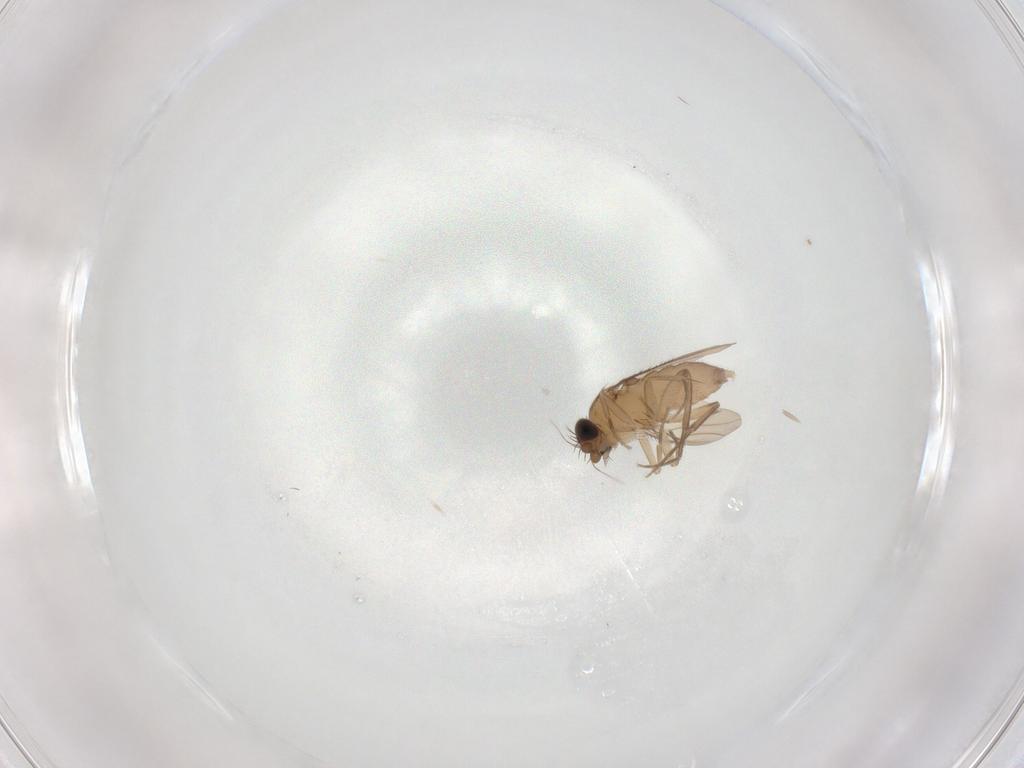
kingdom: Animalia
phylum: Arthropoda
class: Insecta
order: Diptera
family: Phoridae
